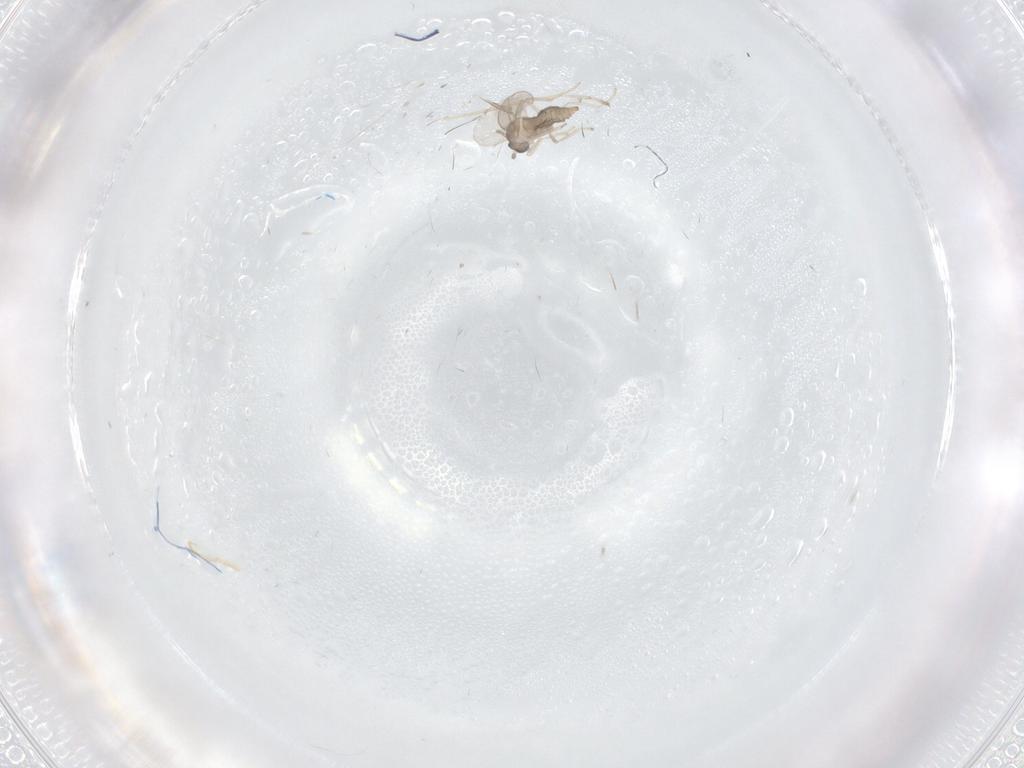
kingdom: Animalia
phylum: Arthropoda
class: Insecta
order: Diptera
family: Cecidomyiidae
